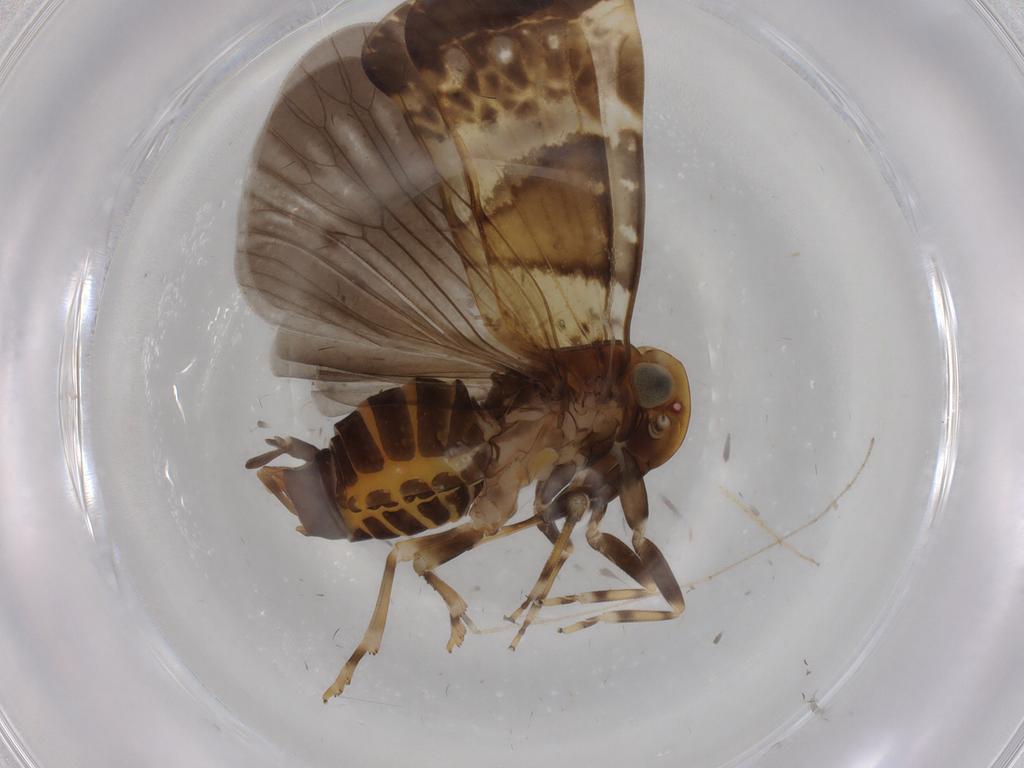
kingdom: Animalia
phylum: Arthropoda
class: Insecta
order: Hemiptera
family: Cixiidae
